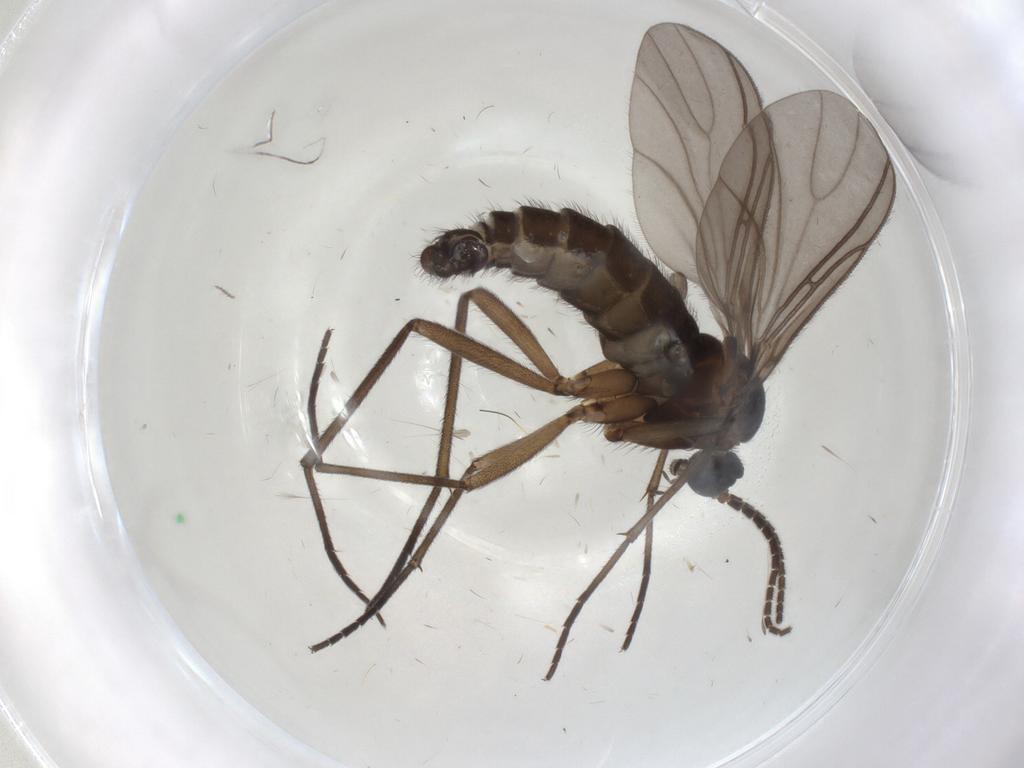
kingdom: Animalia
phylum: Arthropoda
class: Insecta
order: Diptera
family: Sciaridae
